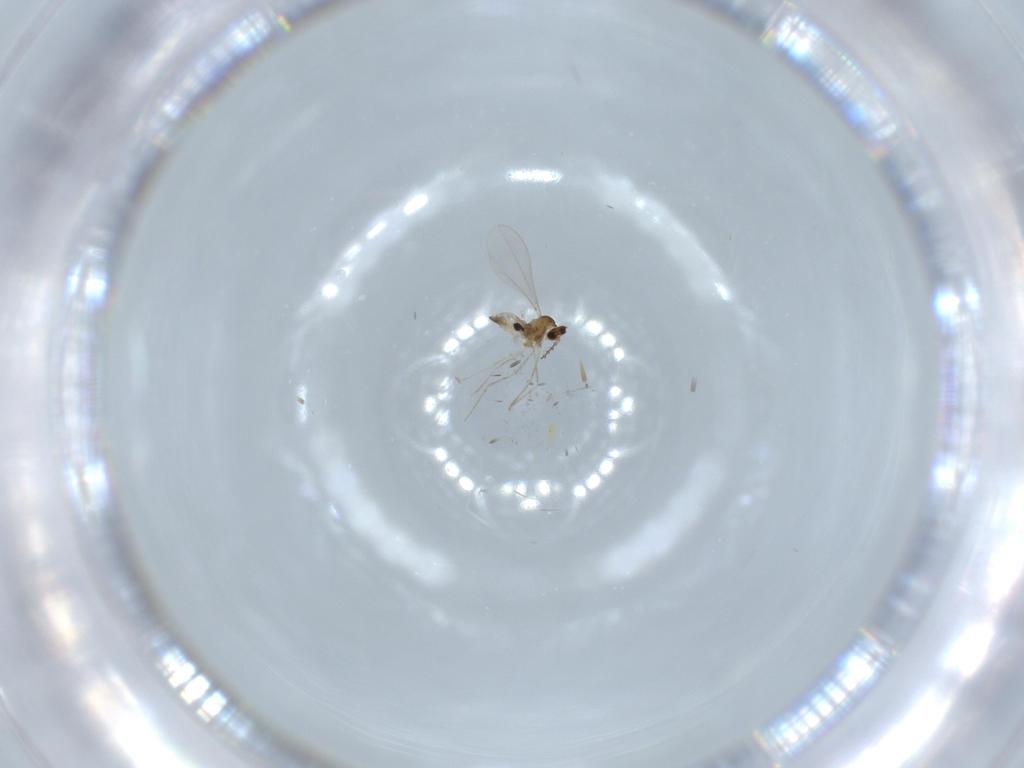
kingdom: Animalia
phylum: Arthropoda
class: Insecta
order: Diptera
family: Cecidomyiidae
